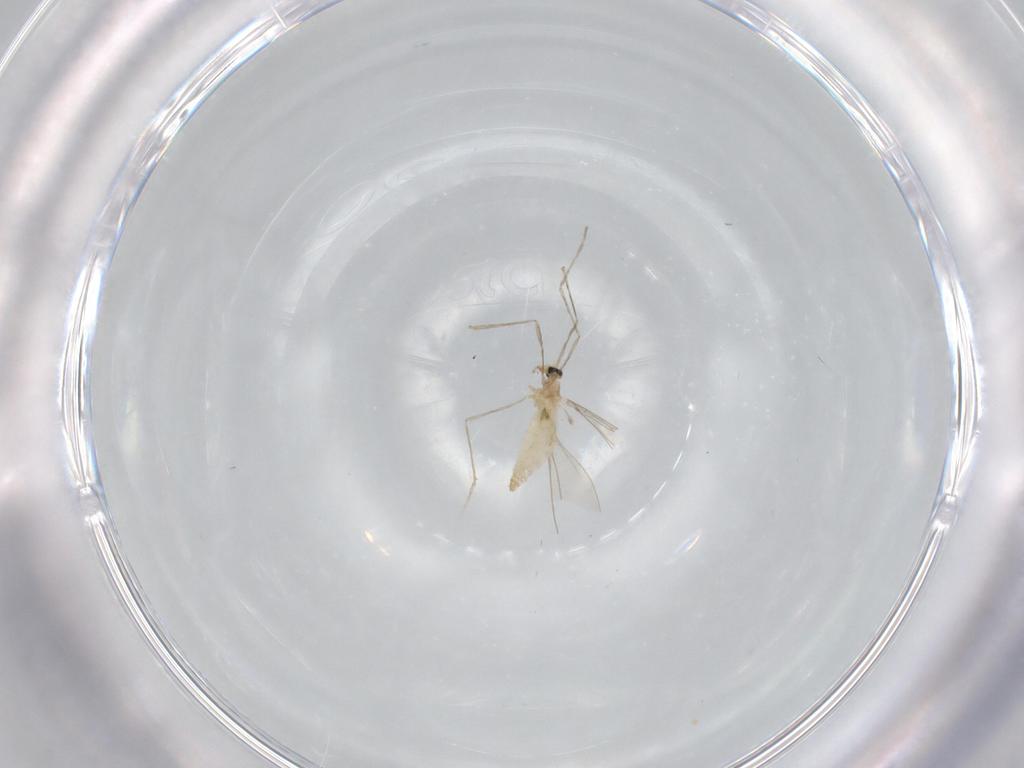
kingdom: Animalia
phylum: Arthropoda
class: Insecta
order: Diptera
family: Cecidomyiidae
